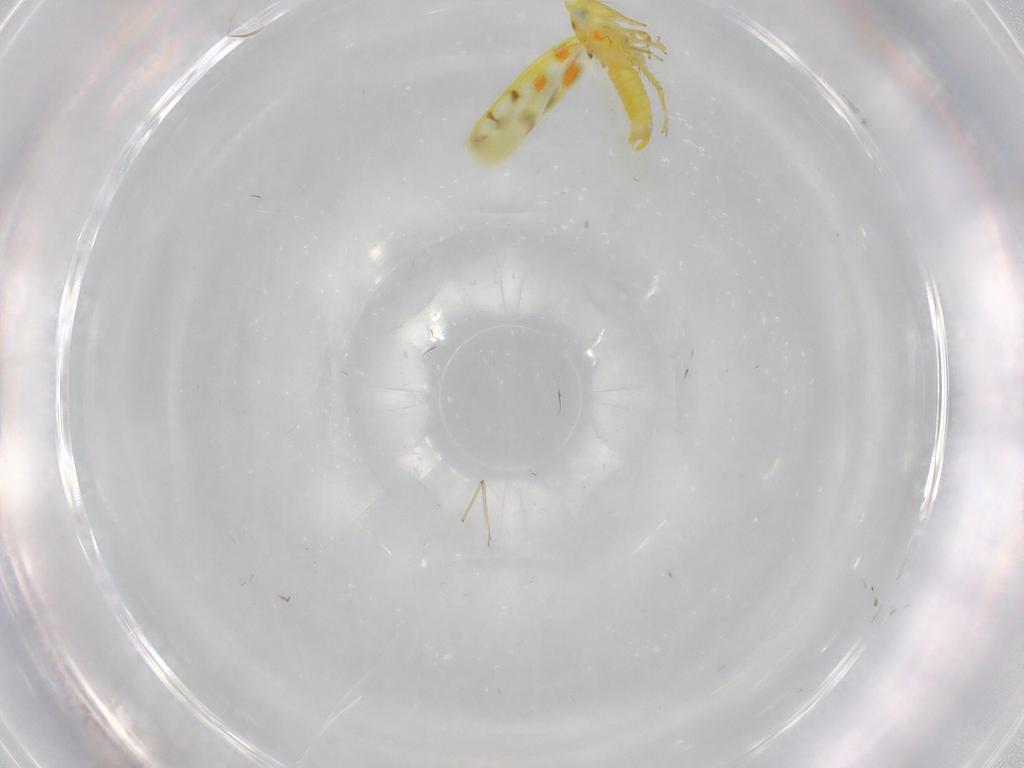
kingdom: Animalia
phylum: Arthropoda
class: Insecta
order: Hemiptera
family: Cicadellidae
